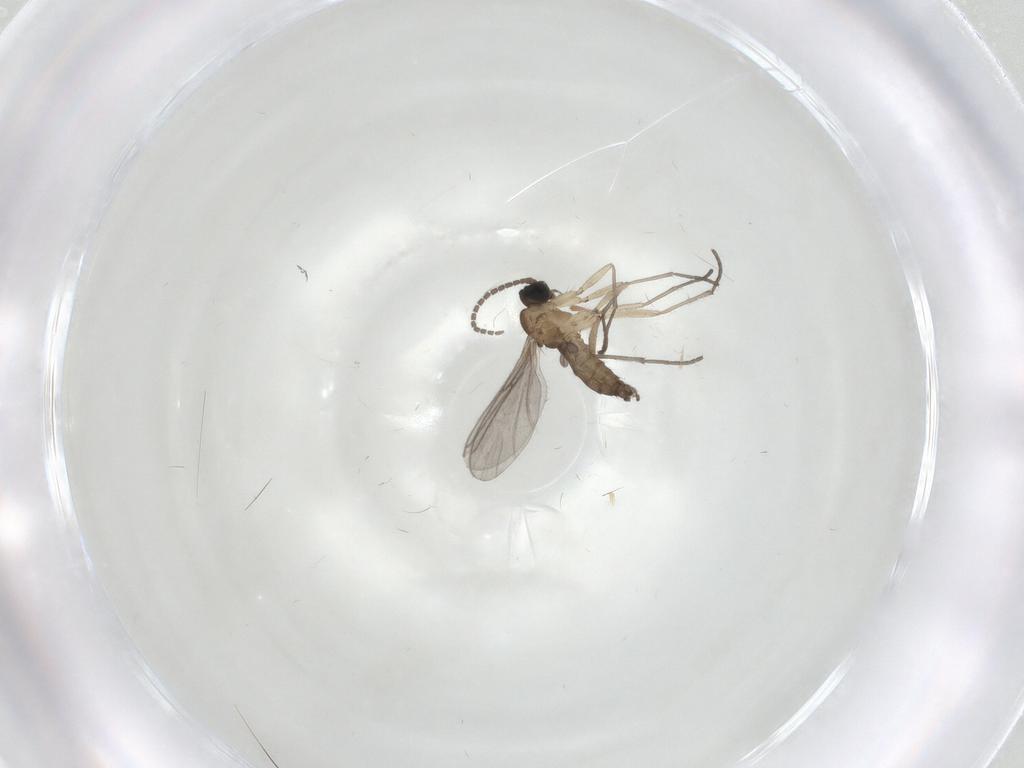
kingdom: Animalia
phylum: Arthropoda
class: Insecta
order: Diptera
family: Sciaridae
